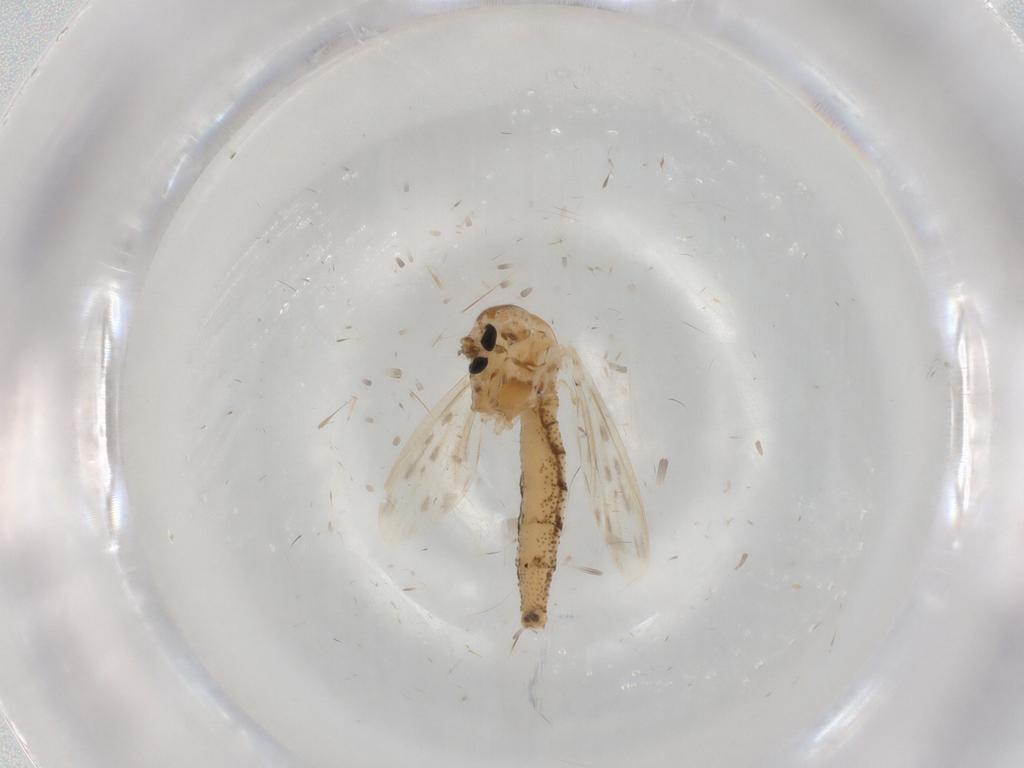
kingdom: Animalia
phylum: Arthropoda
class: Insecta
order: Diptera
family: Chaoboridae
